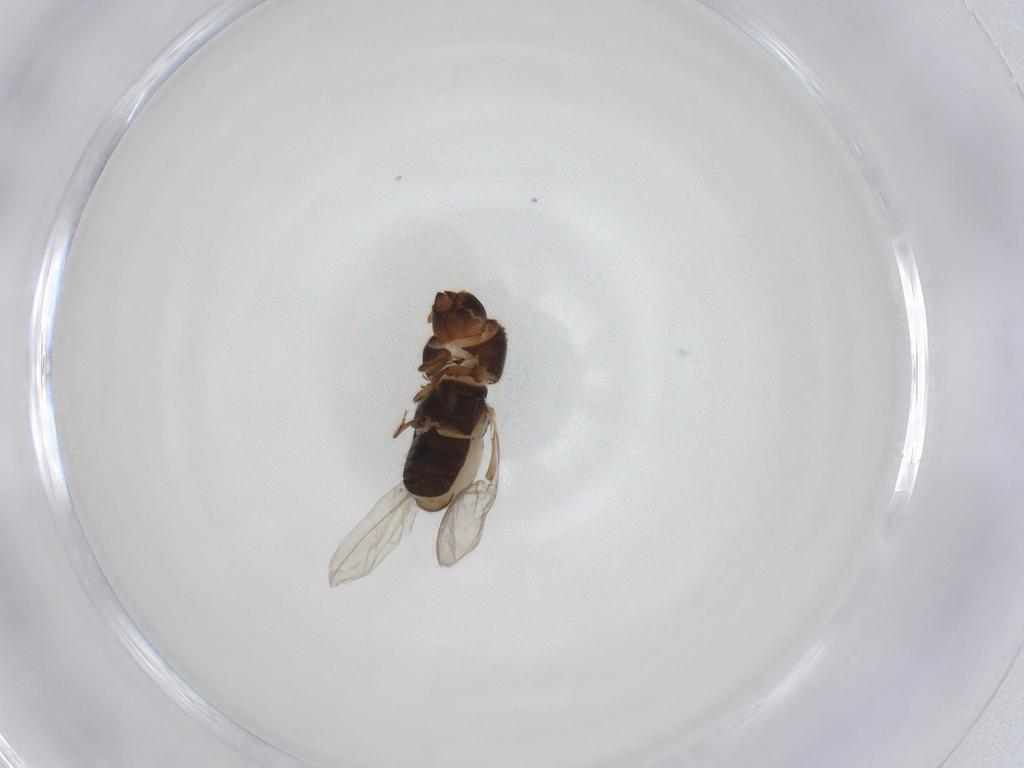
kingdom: Animalia
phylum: Arthropoda
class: Insecta
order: Coleoptera
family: Curculionidae
